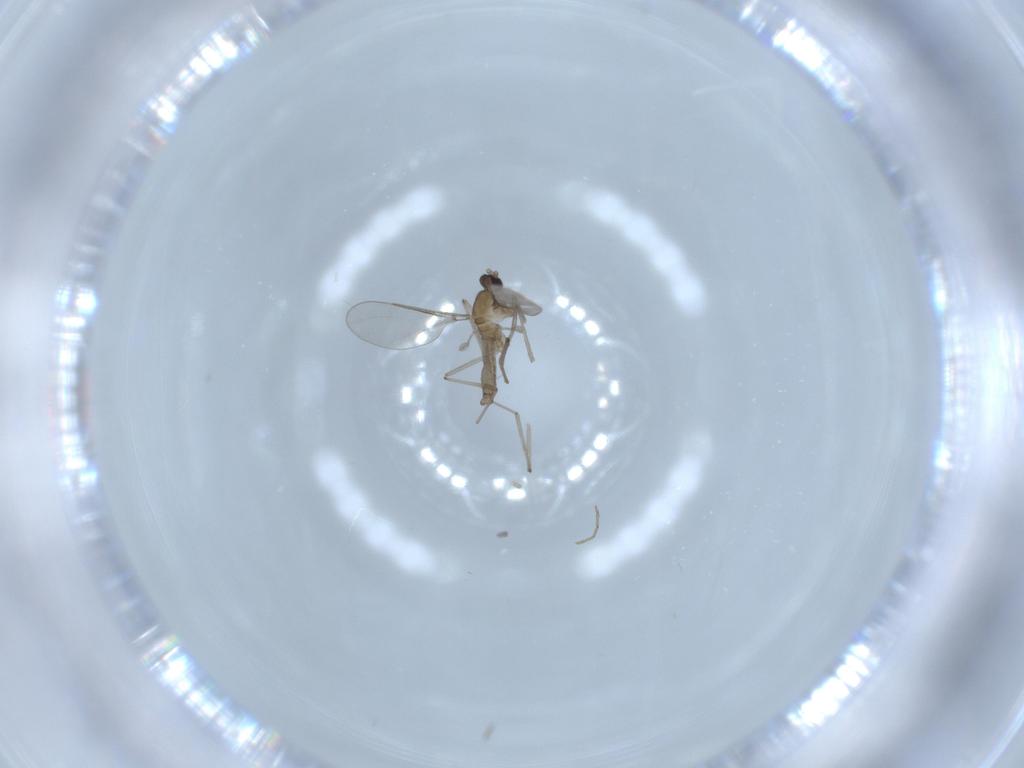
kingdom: Animalia
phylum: Arthropoda
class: Insecta
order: Diptera
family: Cecidomyiidae
